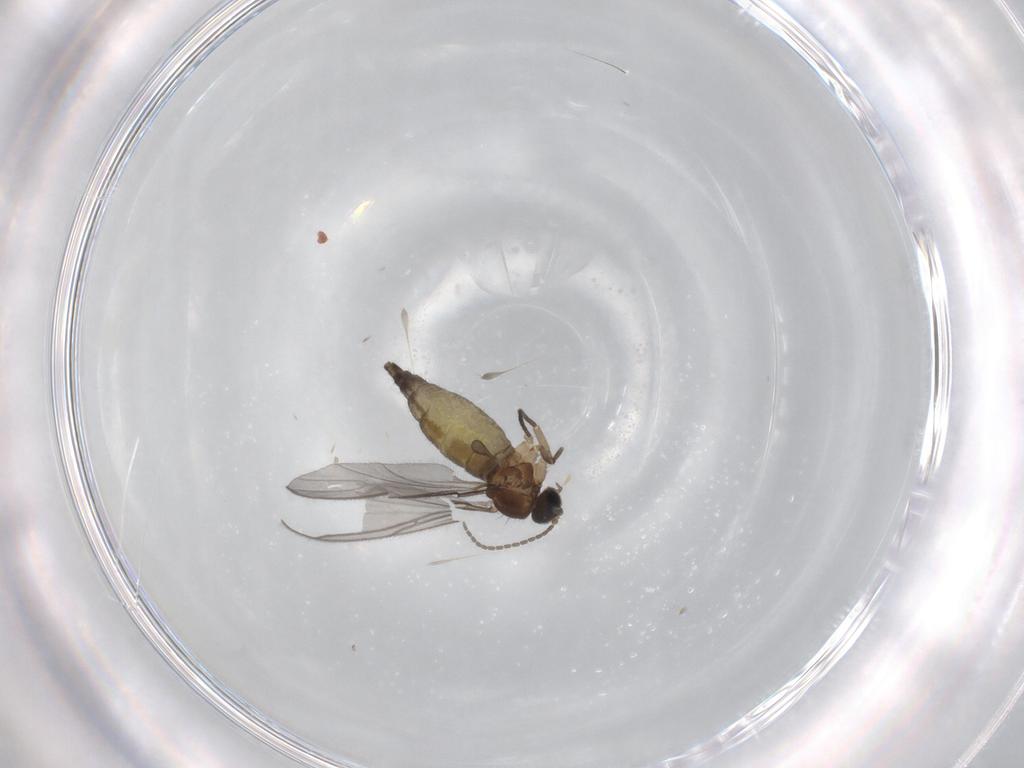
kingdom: Animalia
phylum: Arthropoda
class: Insecta
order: Diptera
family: Sciaridae
